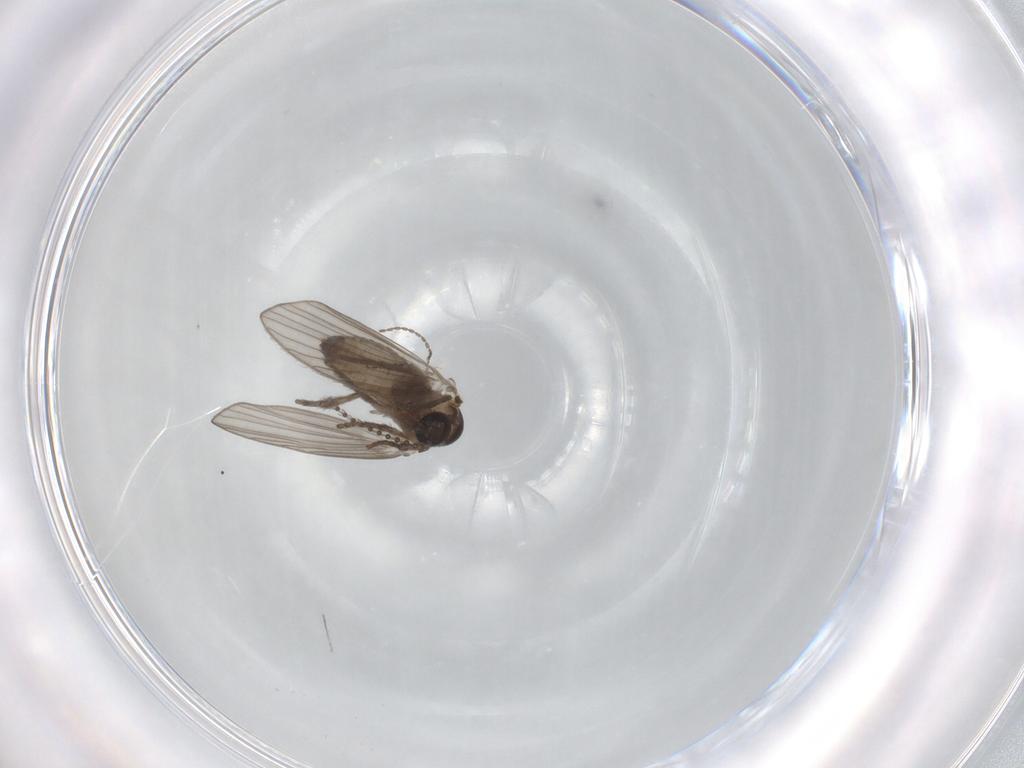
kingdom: Animalia
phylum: Arthropoda
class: Insecta
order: Diptera
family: Psychodidae
